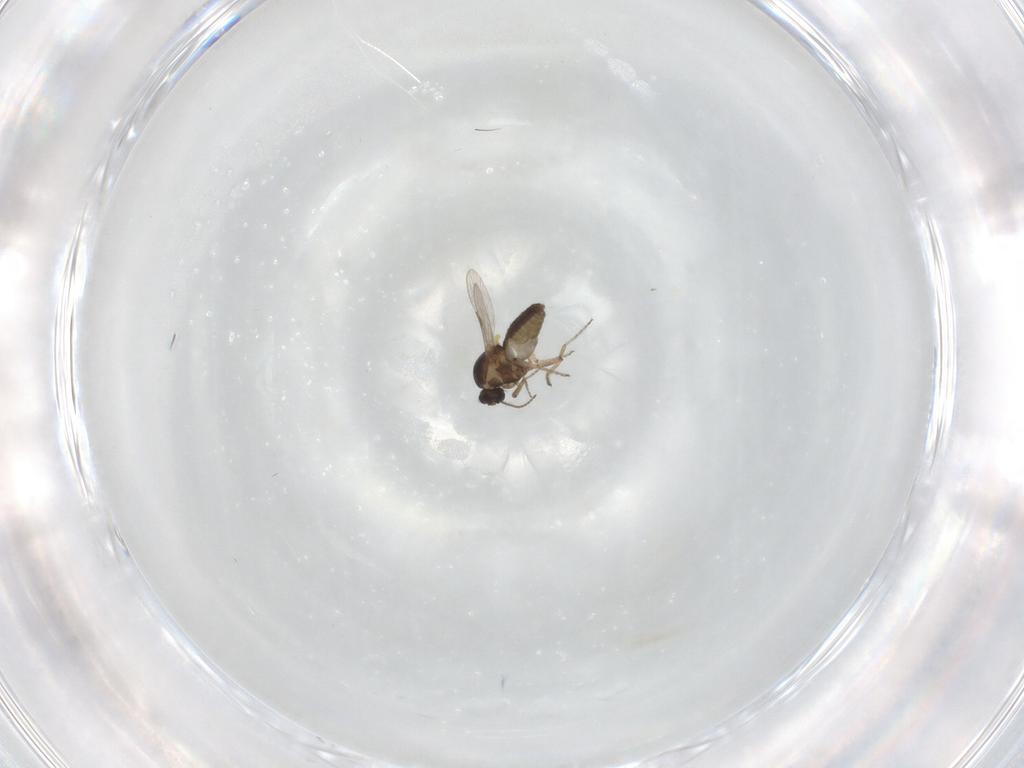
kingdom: Animalia
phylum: Arthropoda
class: Insecta
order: Diptera
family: Ceratopogonidae
